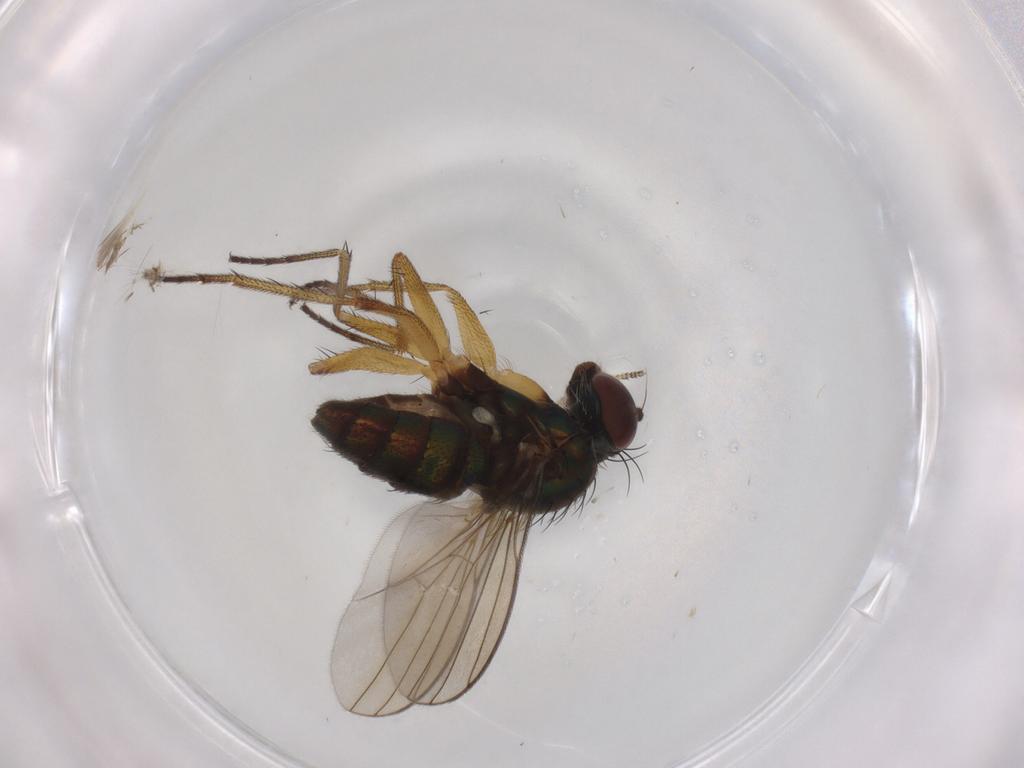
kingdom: Animalia
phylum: Arthropoda
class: Insecta
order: Diptera
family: Dolichopodidae
